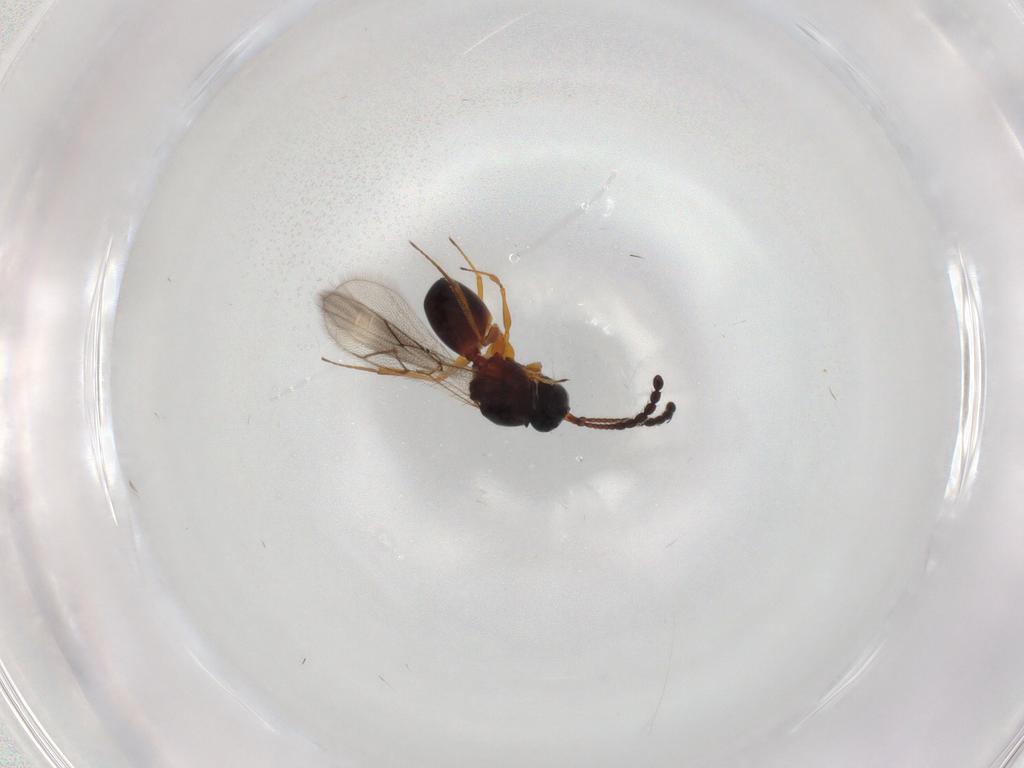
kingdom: Animalia
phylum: Arthropoda
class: Insecta
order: Hymenoptera
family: Figitidae
